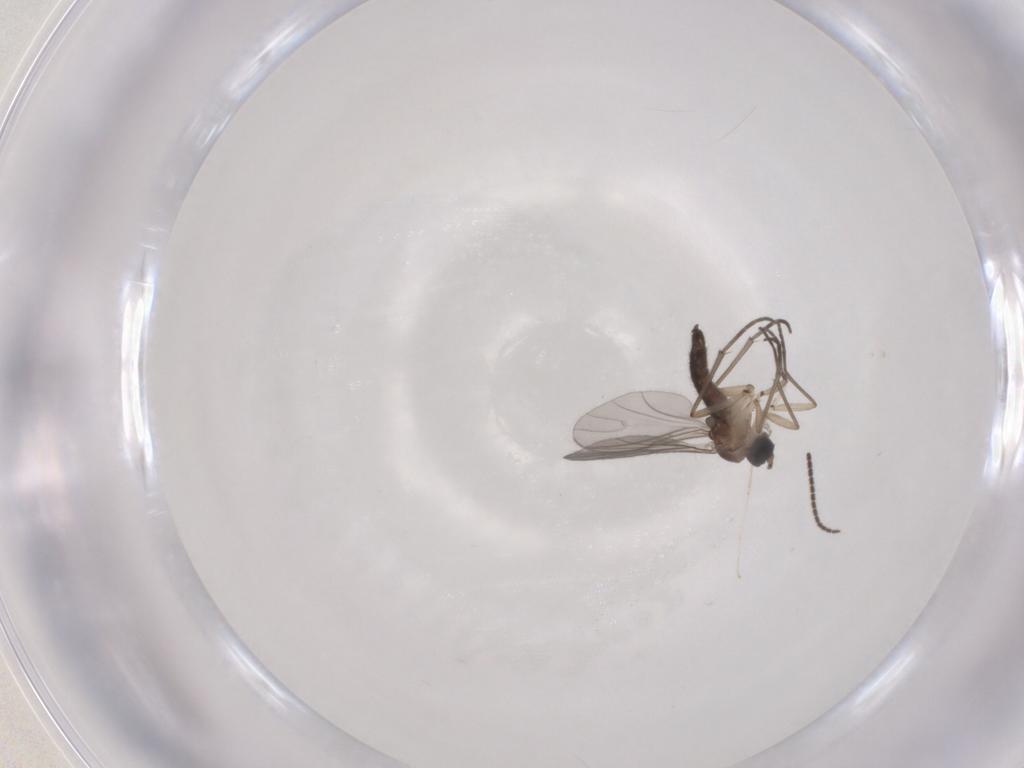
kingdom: Animalia
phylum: Arthropoda
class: Insecta
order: Diptera
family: Sciaridae
